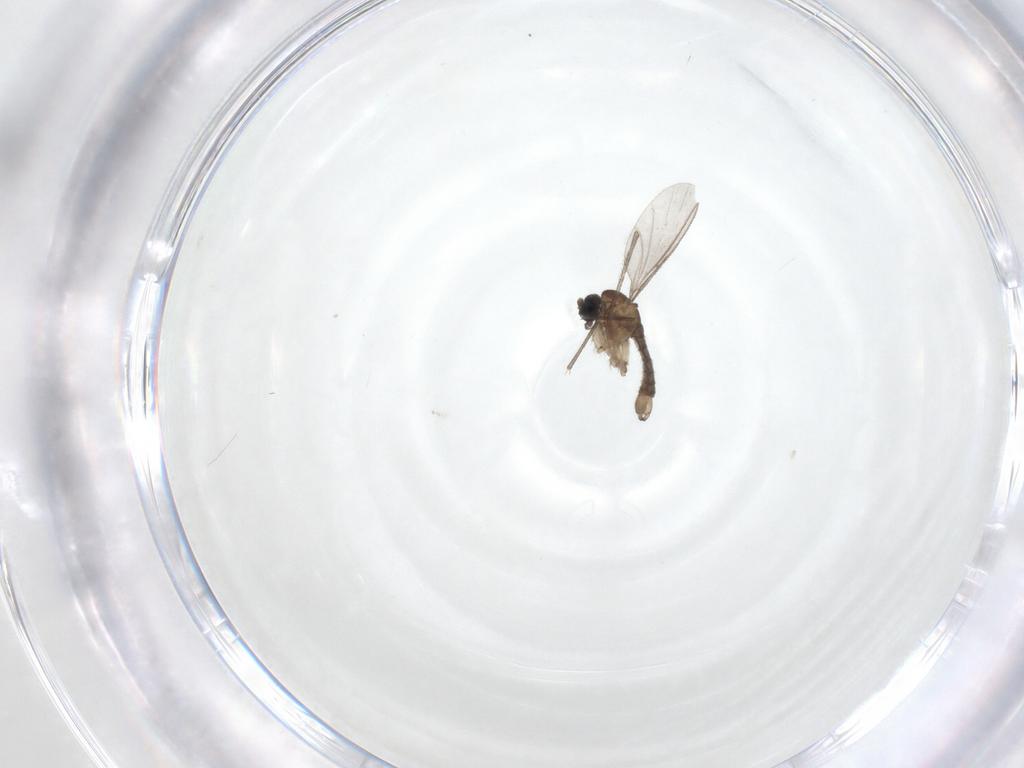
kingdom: Animalia
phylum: Arthropoda
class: Insecta
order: Diptera
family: Sciaridae
